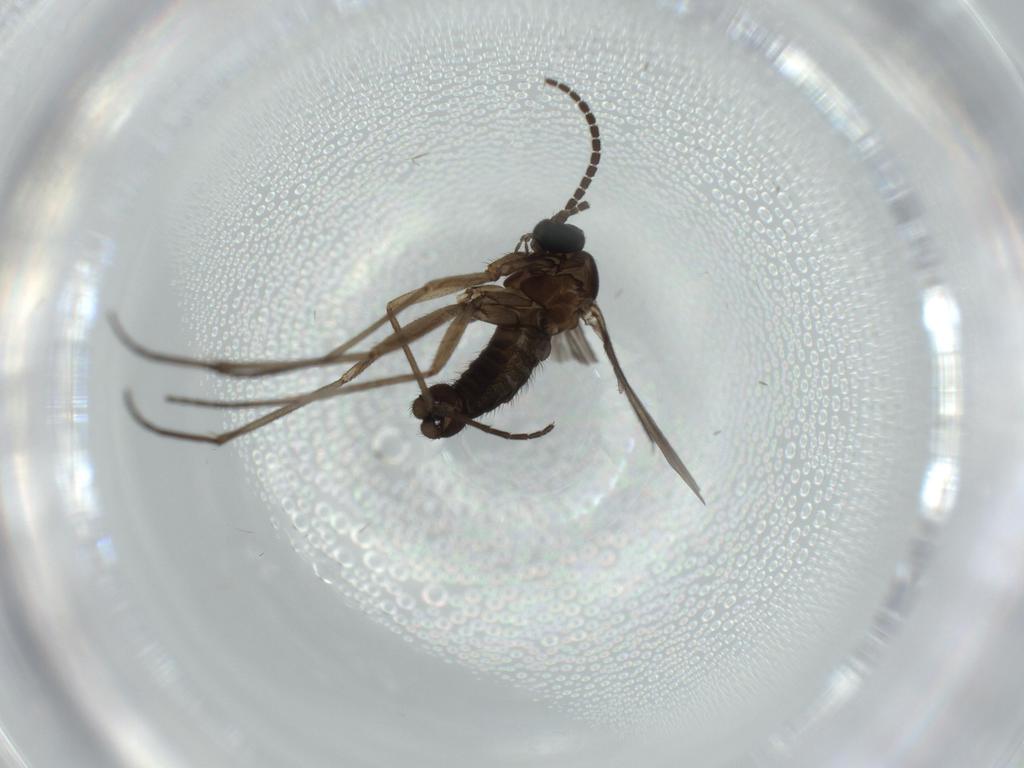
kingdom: Animalia
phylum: Arthropoda
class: Insecta
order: Diptera
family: Sciaridae
